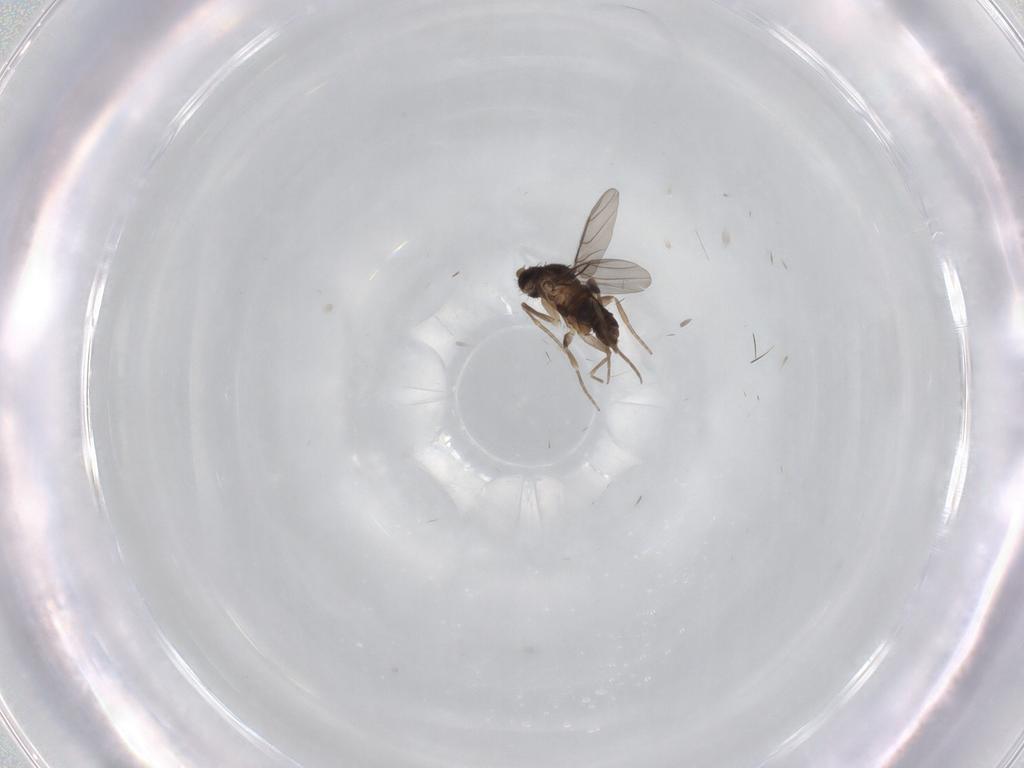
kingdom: Animalia
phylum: Arthropoda
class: Insecta
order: Diptera
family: Phoridae
